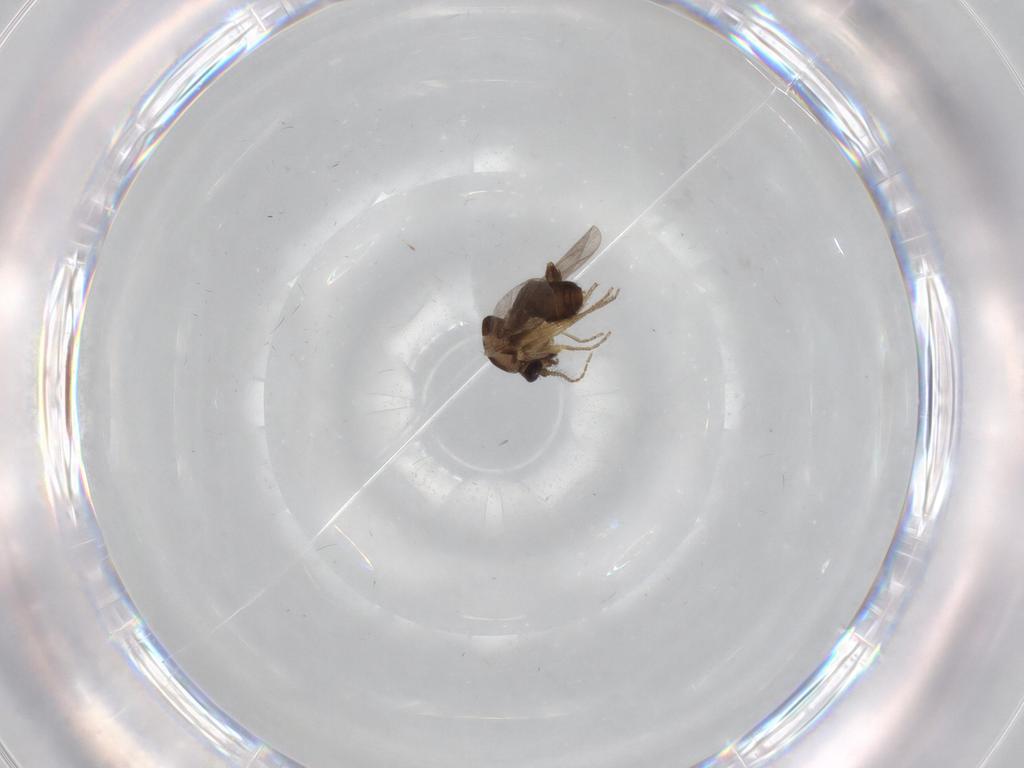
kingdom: Animalia
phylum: Arthropoda
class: Insecta
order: Diptera
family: Ceratopogonidae
